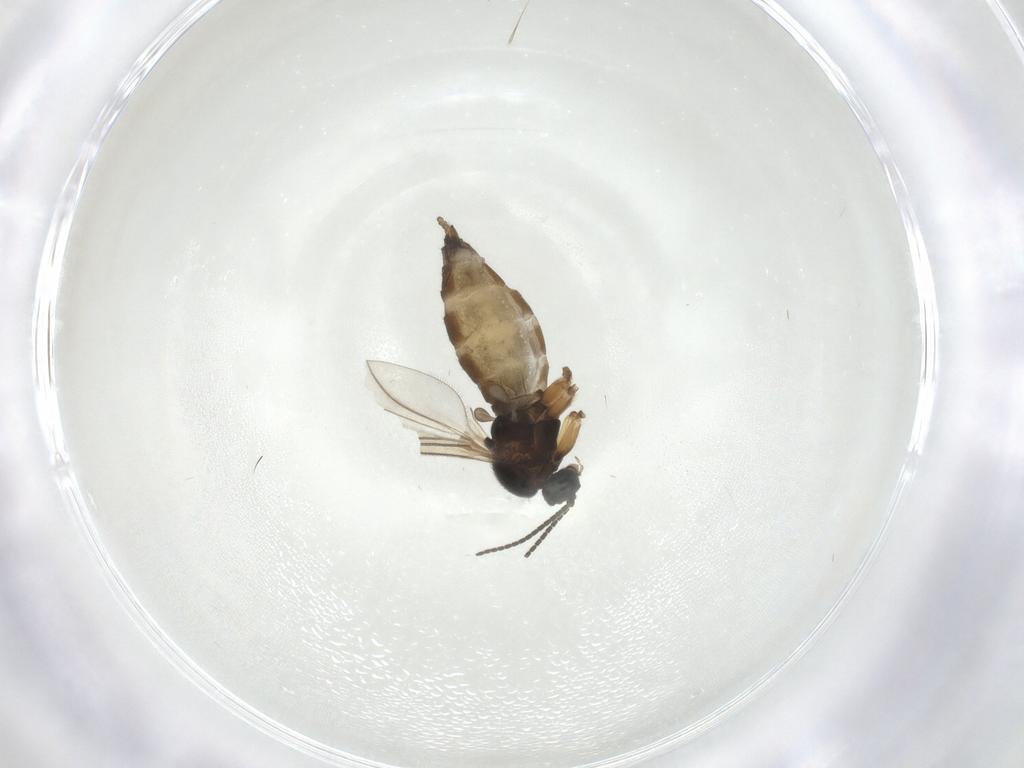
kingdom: Animalia
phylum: Arthropoda
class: Insecta
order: Diptera
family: Sciaridae
